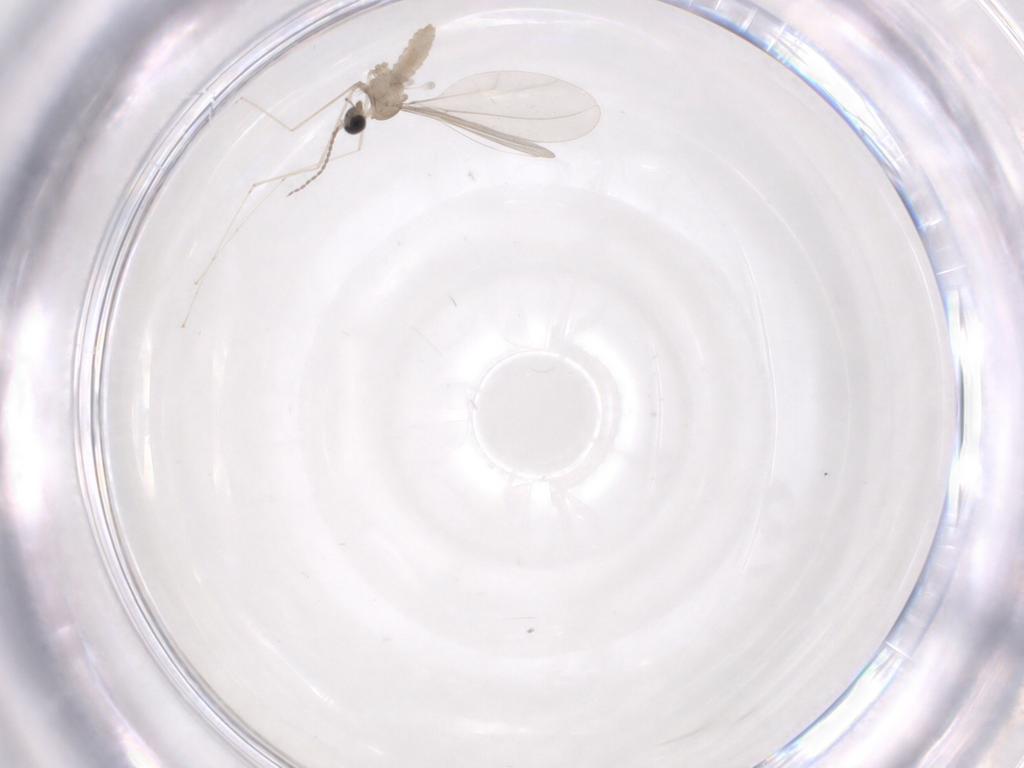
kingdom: Animalia
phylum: Arthropoda
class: Insecta
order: Diptera
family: Cecidomyiidae
